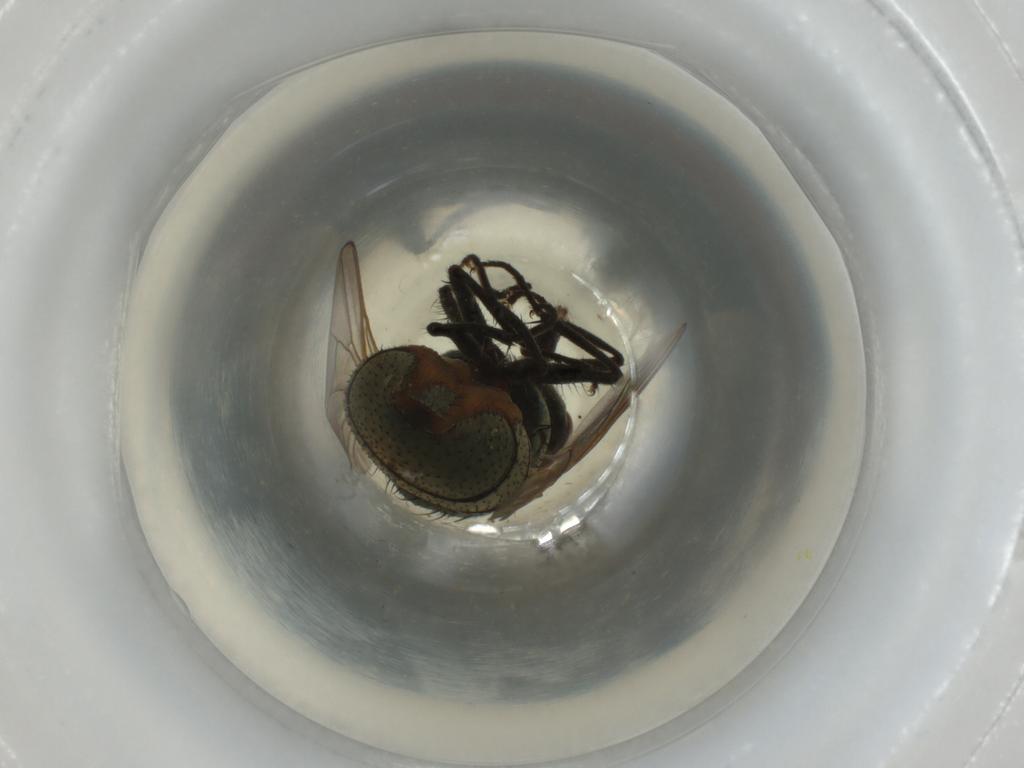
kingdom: Animalia
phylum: Arthropoda
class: Insecta
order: Diptera
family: Muscidae
